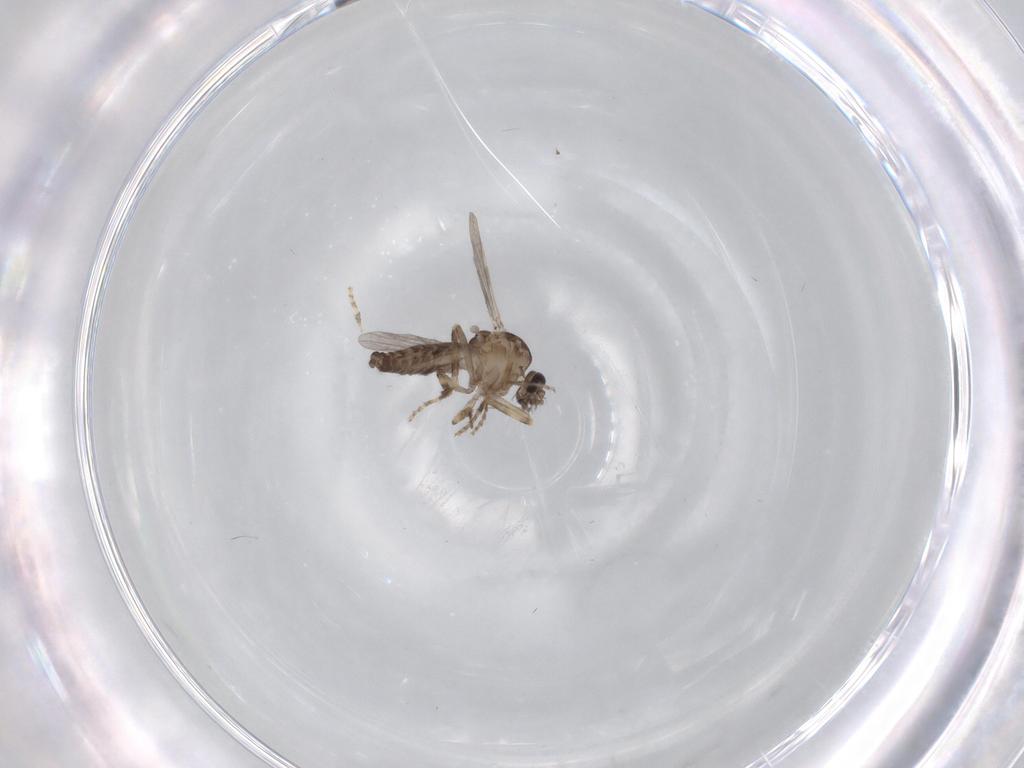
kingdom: Animalia
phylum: Arthropoda
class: Insecta
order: Diptera
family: Ceratopogonidae
